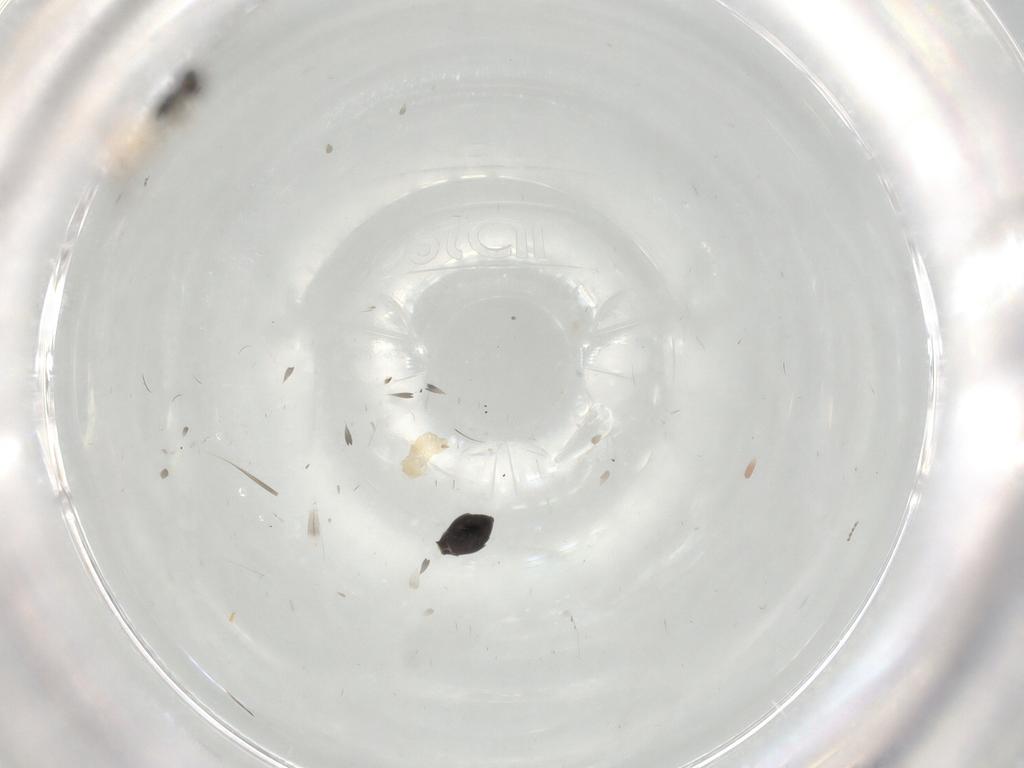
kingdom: Animalia
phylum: Arthropoda
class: Insecta
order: Hymenoptera
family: Scelionidae
